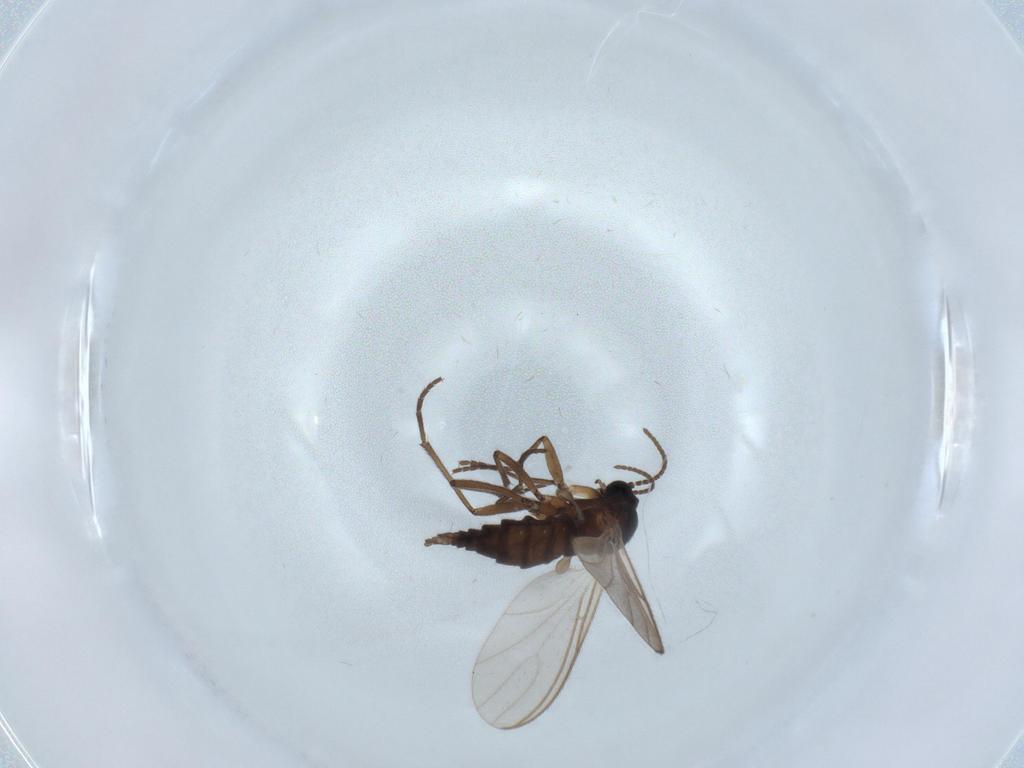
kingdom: Animalia
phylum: Arthropoda
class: Insecta
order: Diptera
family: Sciaridae
